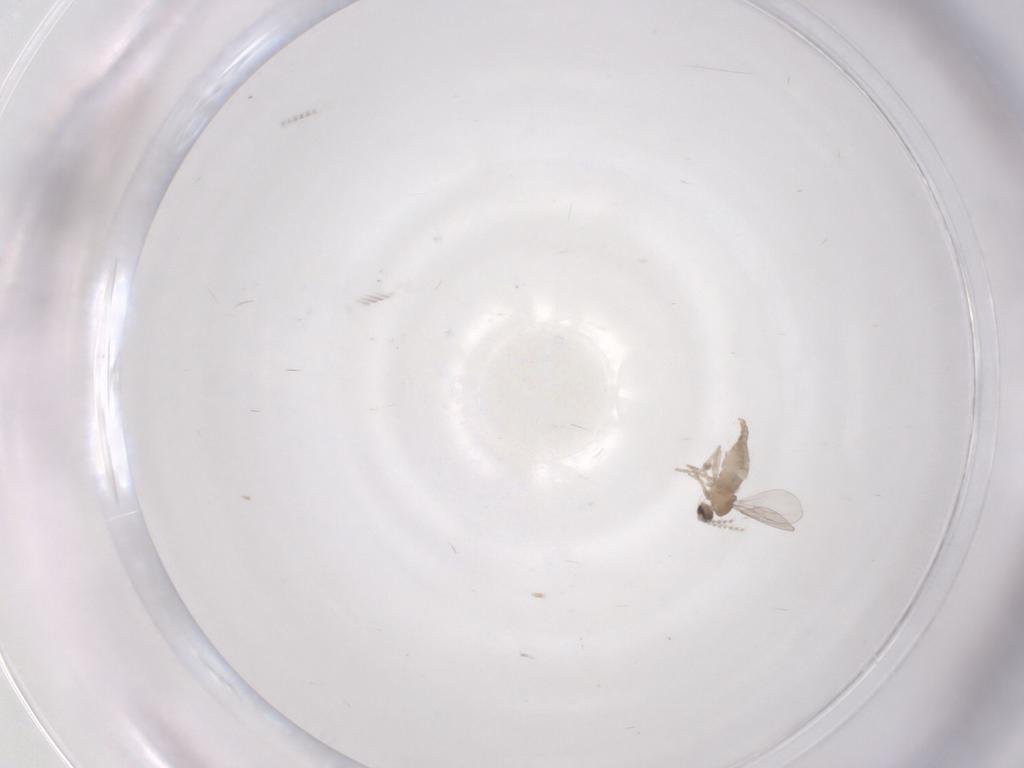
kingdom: Animalia
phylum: Arthropoda
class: Insecta
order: Diptera
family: Cecidomyiidae
